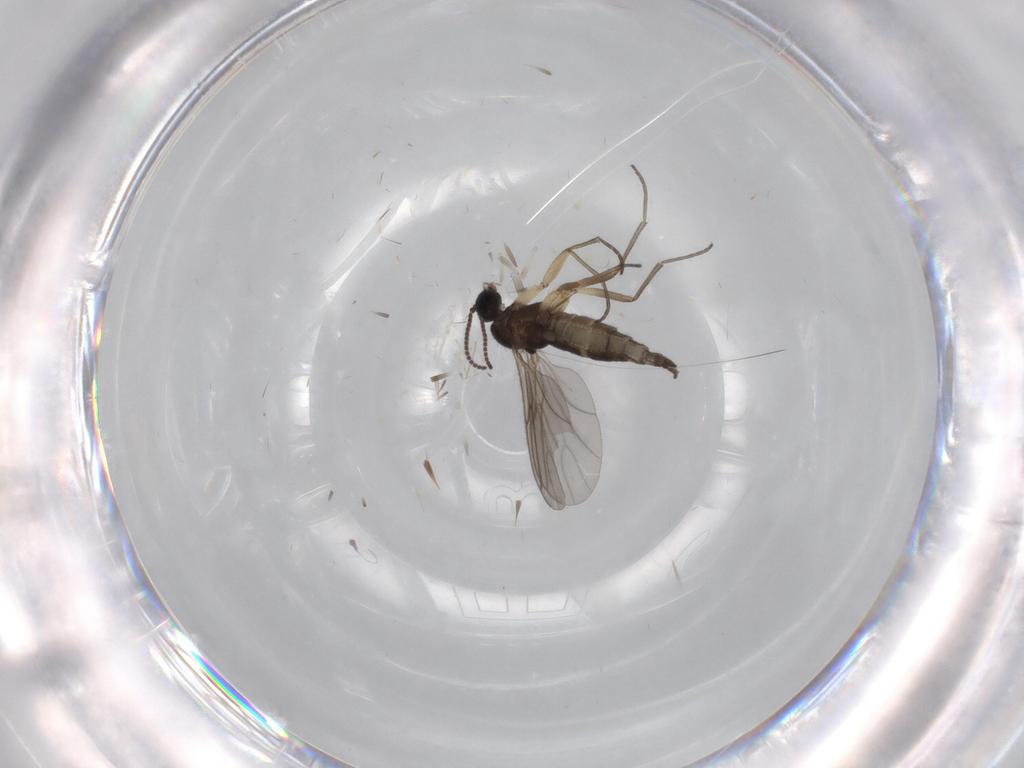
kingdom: Animalia
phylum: Arthropoda
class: Insecta
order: Diptera
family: Sciaridae
